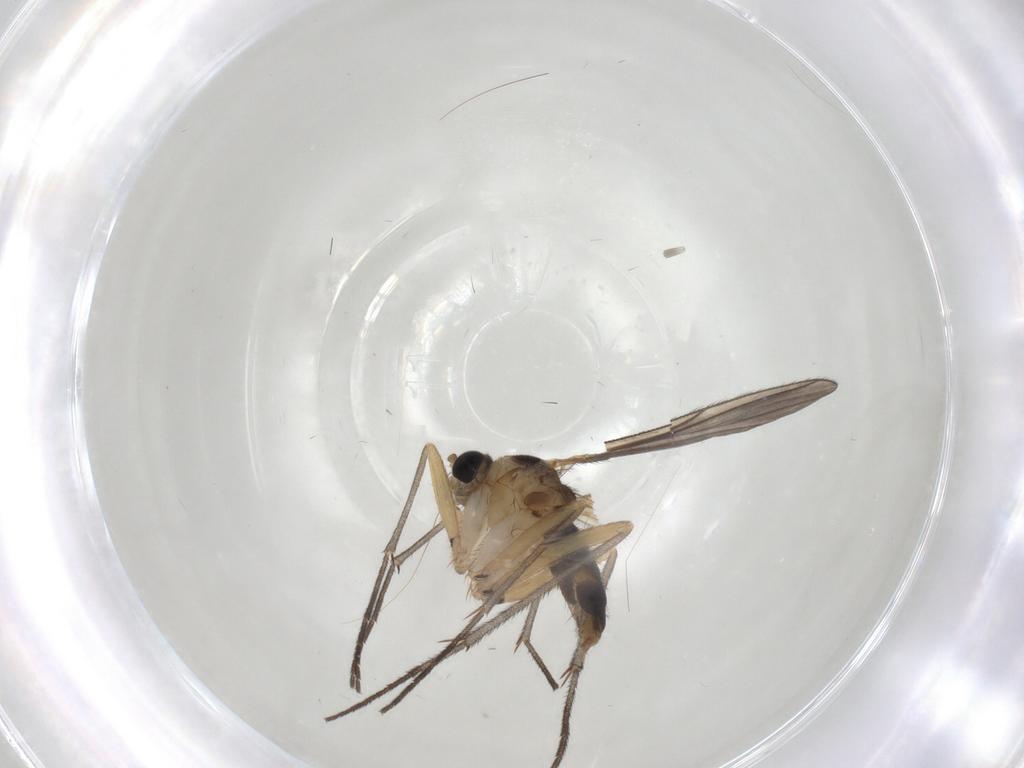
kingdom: Animalia
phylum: Arthropoda
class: Insecta
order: Diptera
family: Sciaridae
